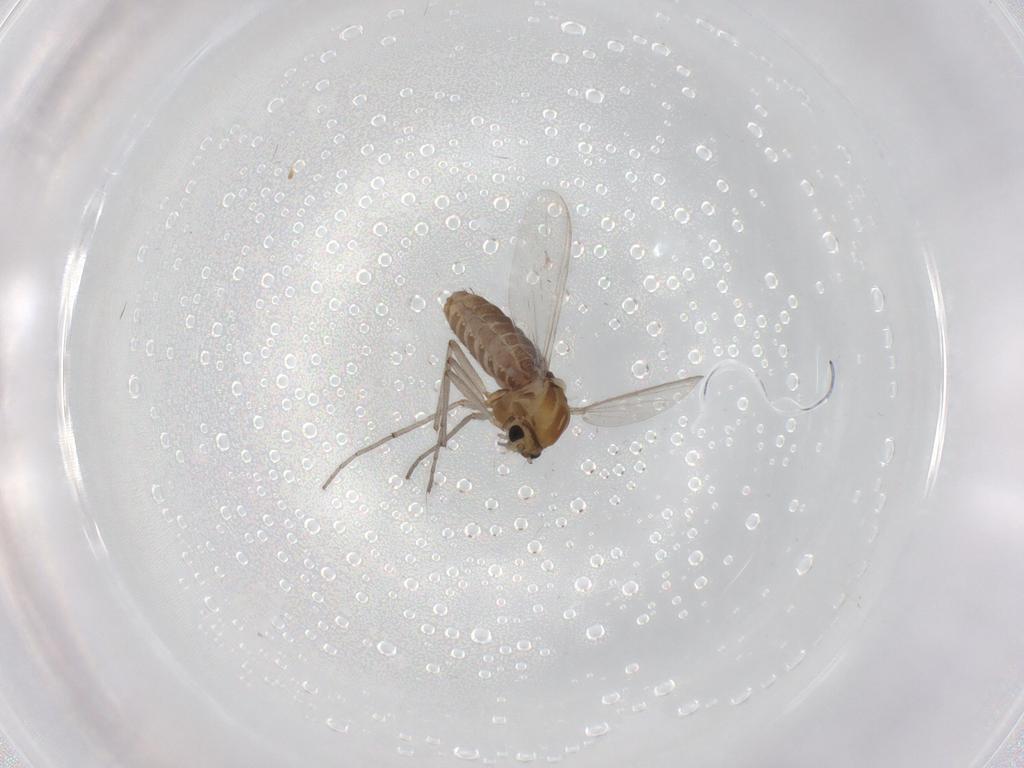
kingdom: Animalia
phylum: Arthropoda
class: Insecta
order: Diptera
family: Chironomidae
